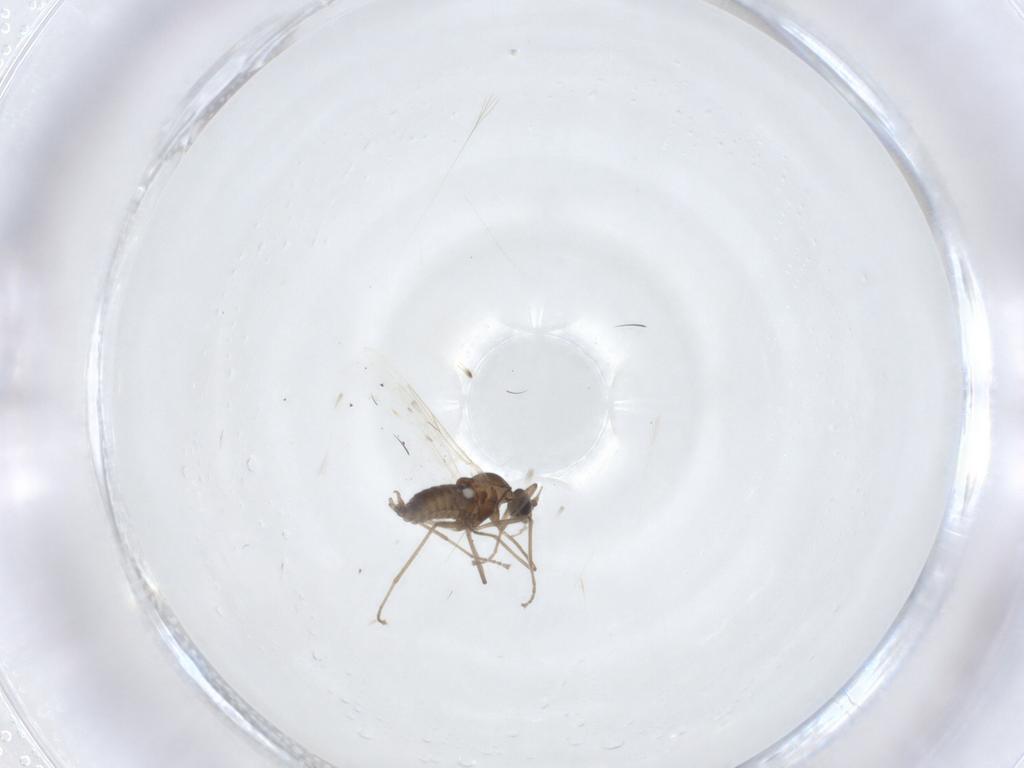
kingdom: Animalia
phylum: Arthropoda
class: Insecta
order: Diptera
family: Cecidomyiidae
